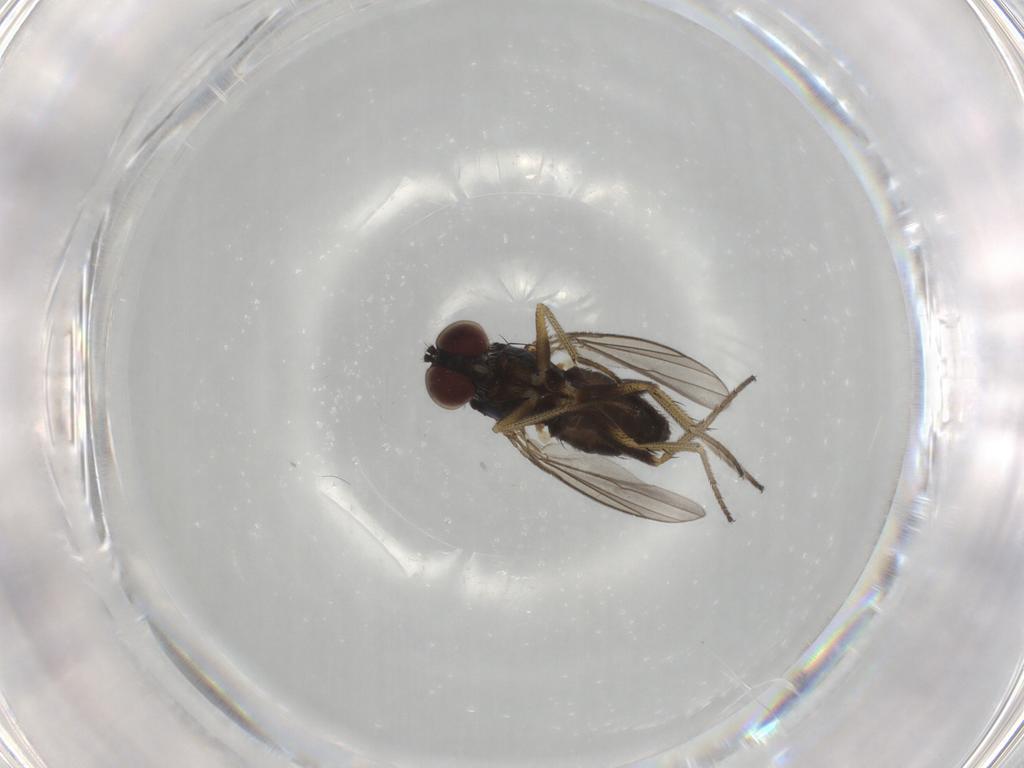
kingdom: Animalia
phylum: Arthropoda
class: Insecta
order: Diptera
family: Dolichopodidae
